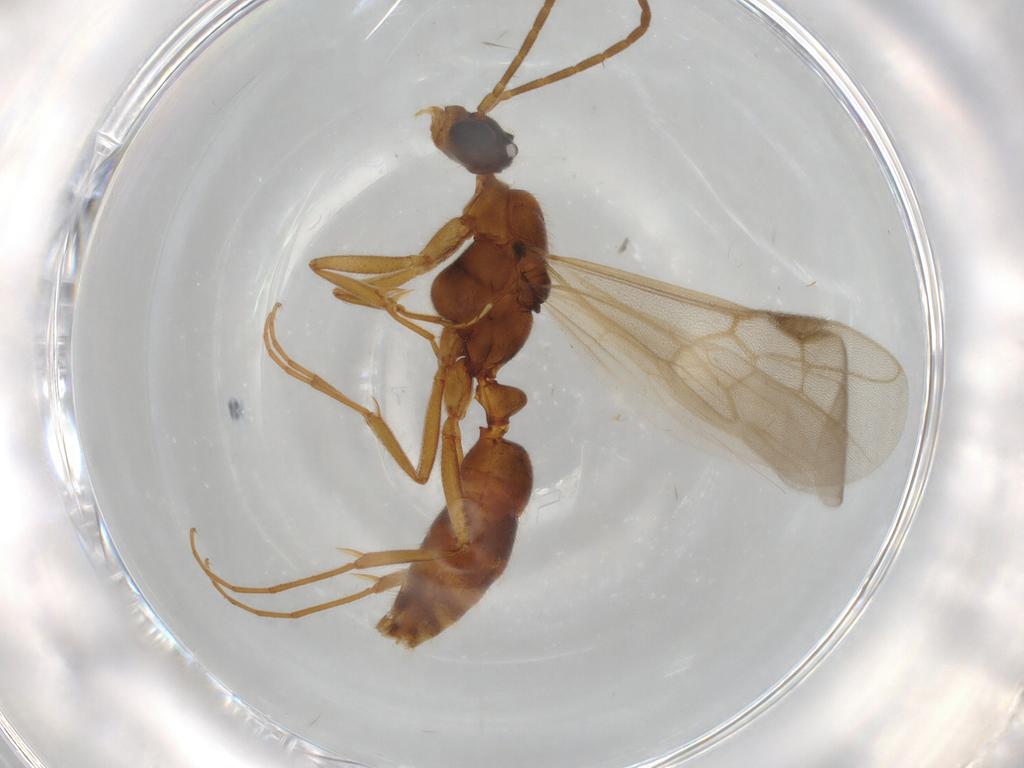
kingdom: Animalia
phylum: Arthropoda
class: Insecta
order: Hymenoptera
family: Formicidae
